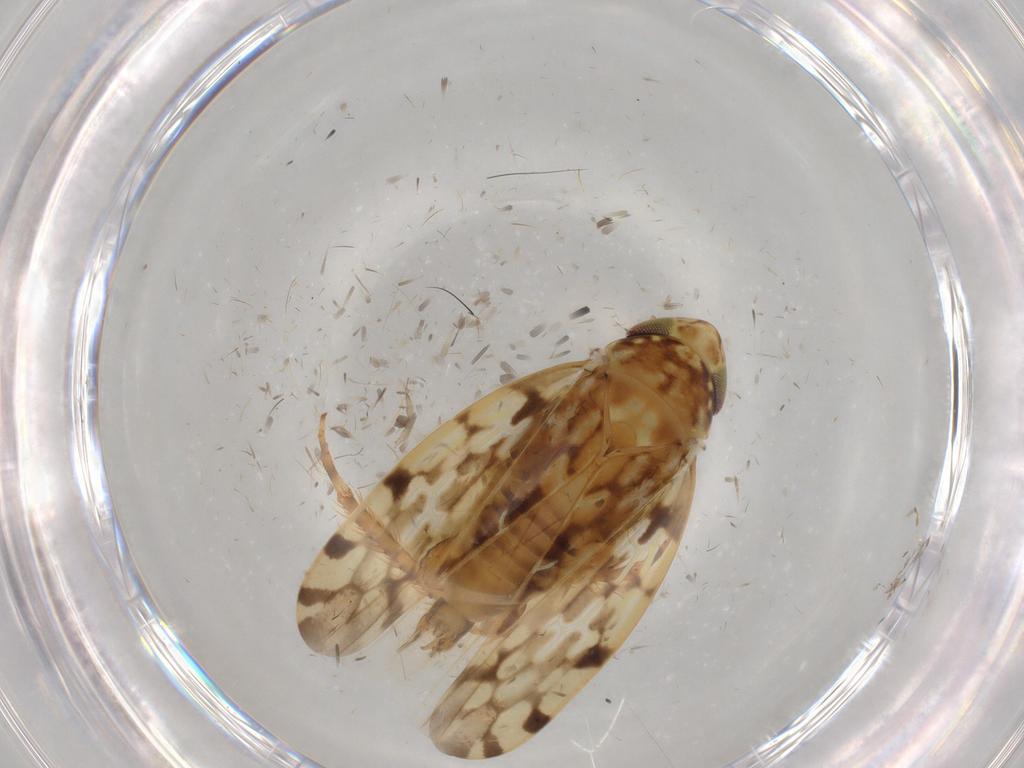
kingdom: Animalia
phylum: Arthropoda
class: Insecta
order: Hemiptera
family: Cicadellidae
